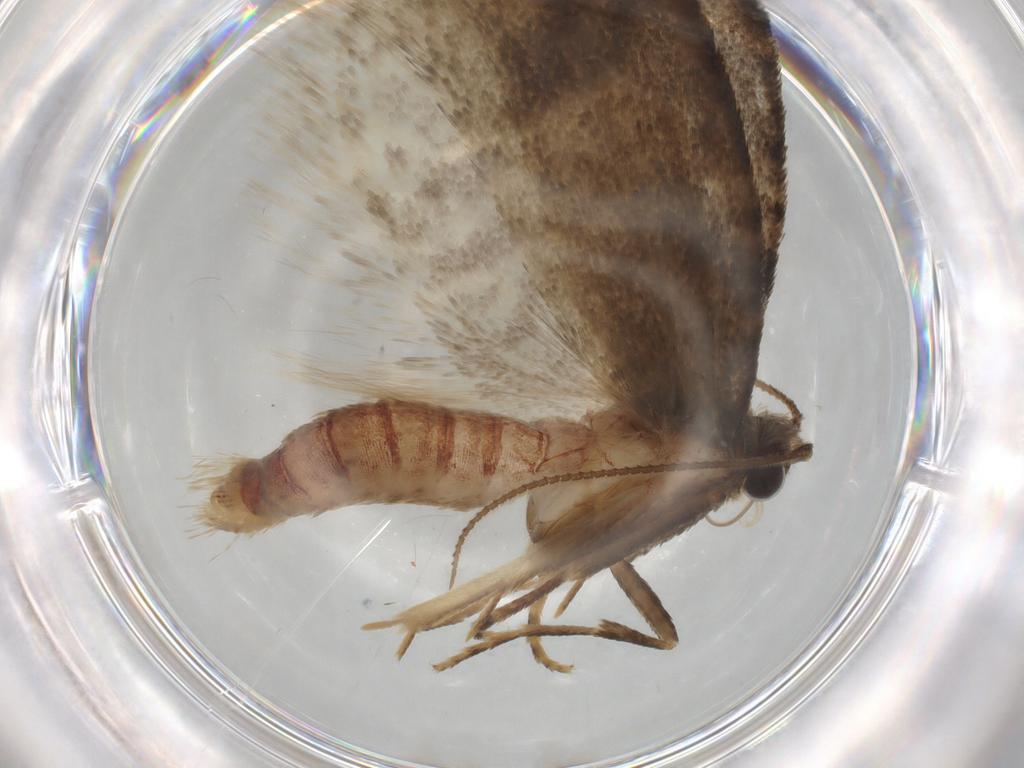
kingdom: Animalia
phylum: Arthropoda
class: Insecta
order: Lepidoptera
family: Limacodidae
